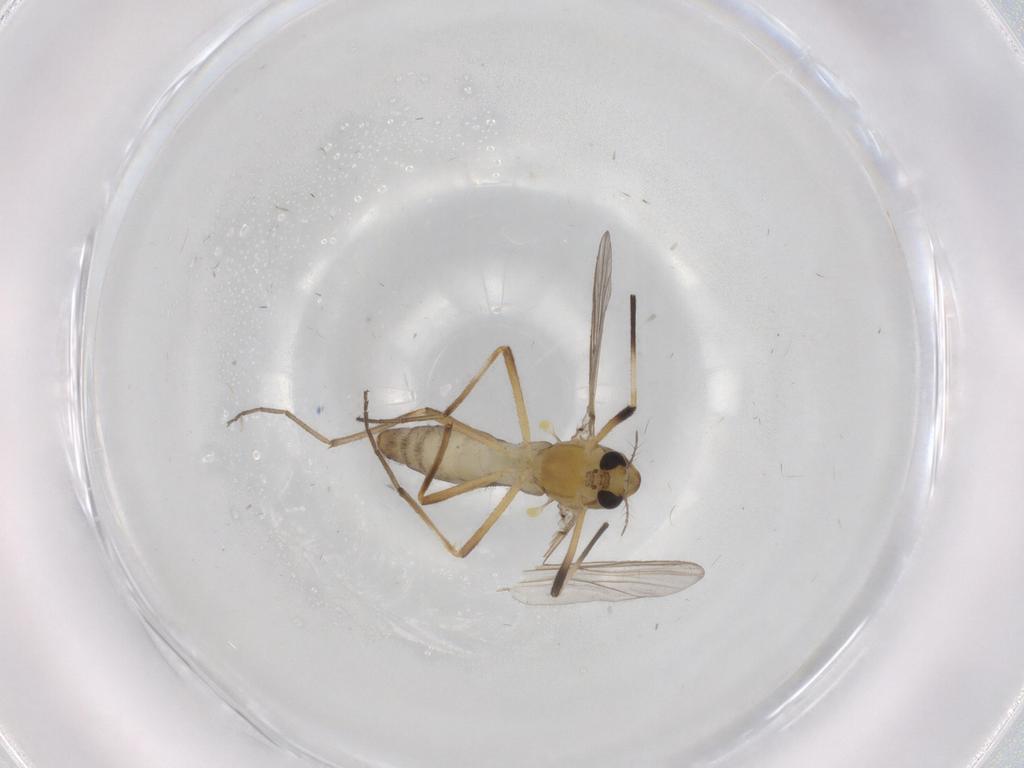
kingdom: Animalia
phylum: Arthropoda
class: Insecta
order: Diptera
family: Chironomidae
